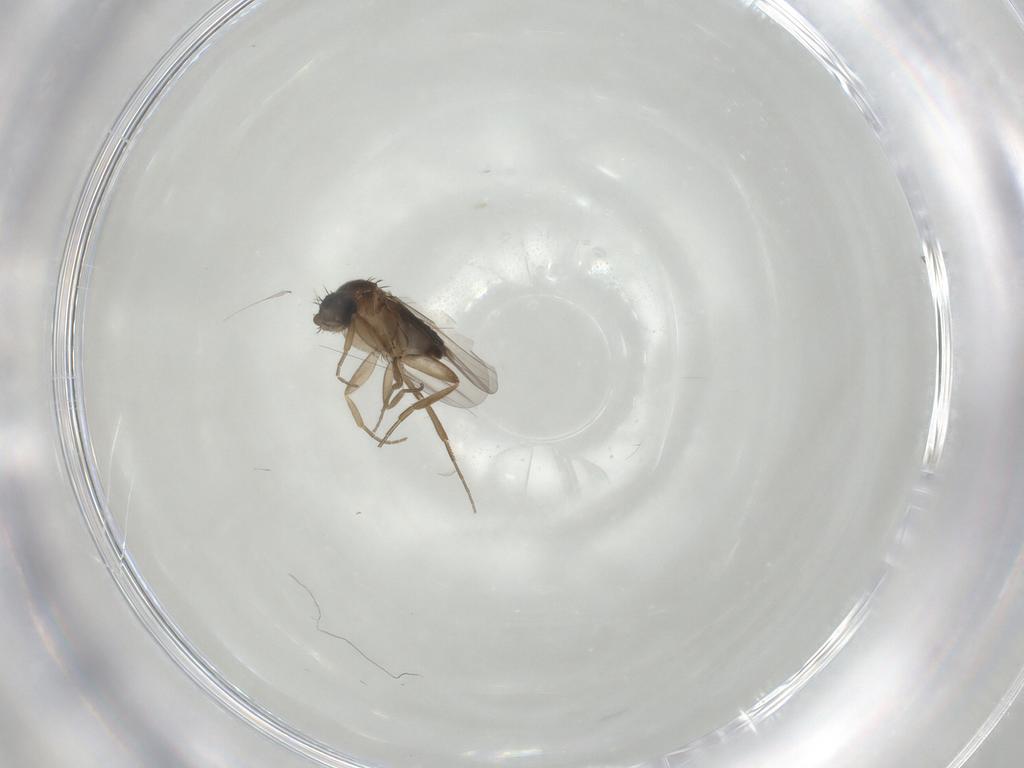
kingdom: Animalia
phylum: Arthropoda
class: Insecta
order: Diptera
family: Phoridae
